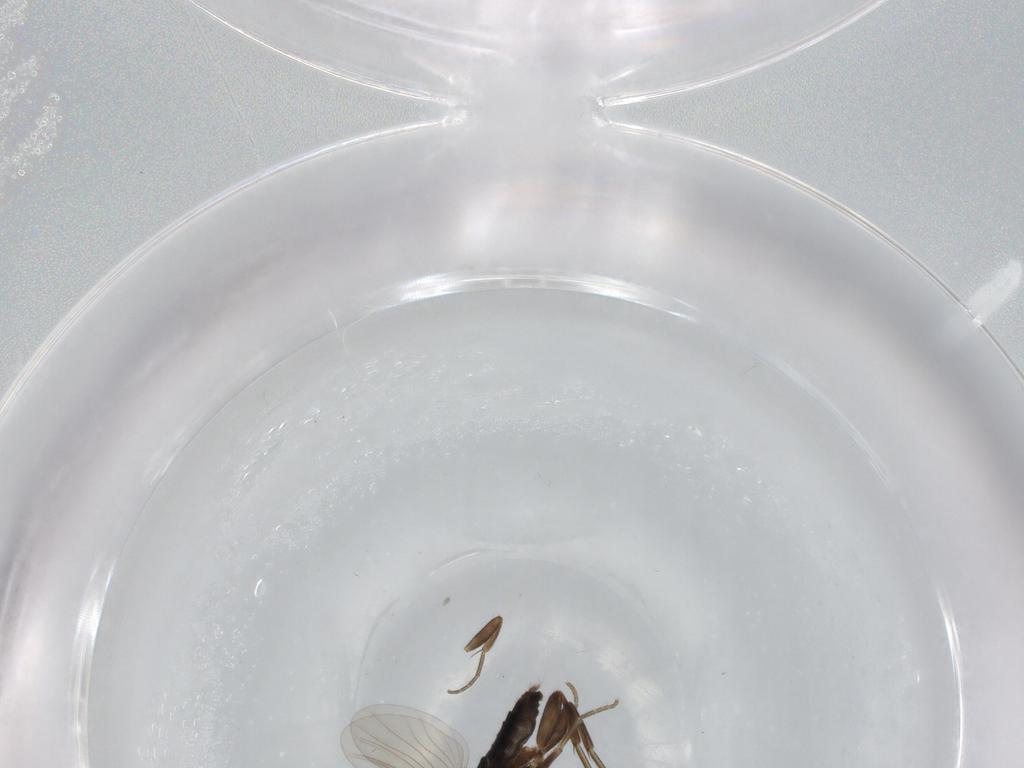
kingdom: Animalia
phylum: Arthropoda
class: Insecta
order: Diptera
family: Phoridae
